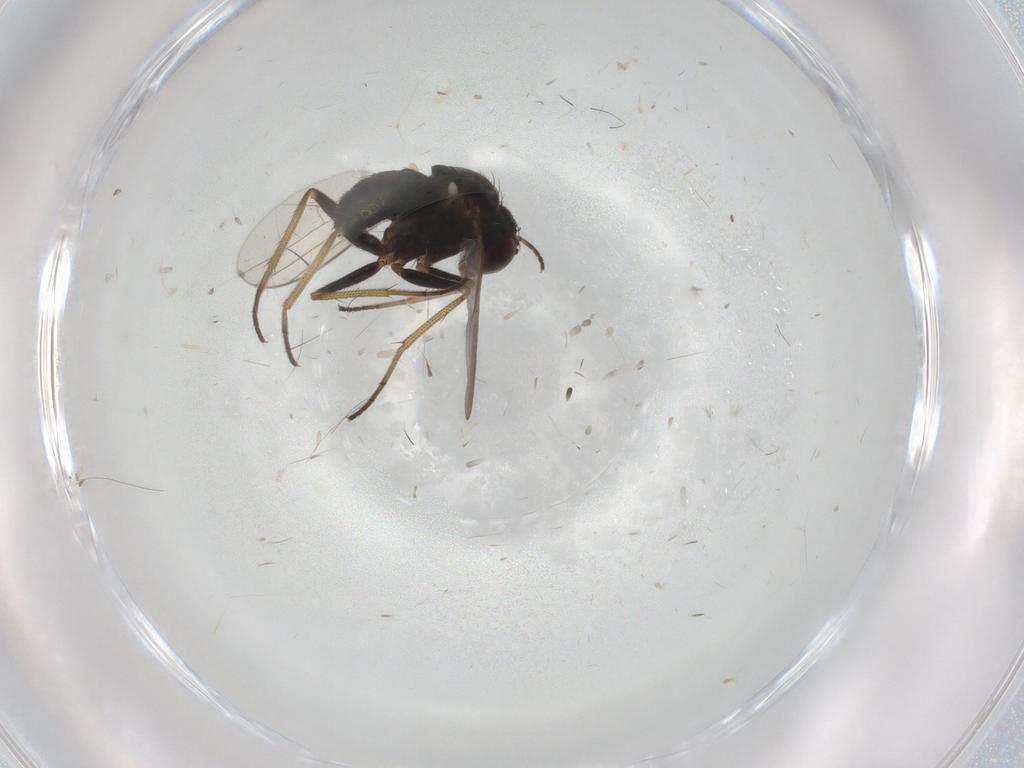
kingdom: Animalia
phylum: Arthropoda
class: Insecta
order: Diptera
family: Dolichopodidae
